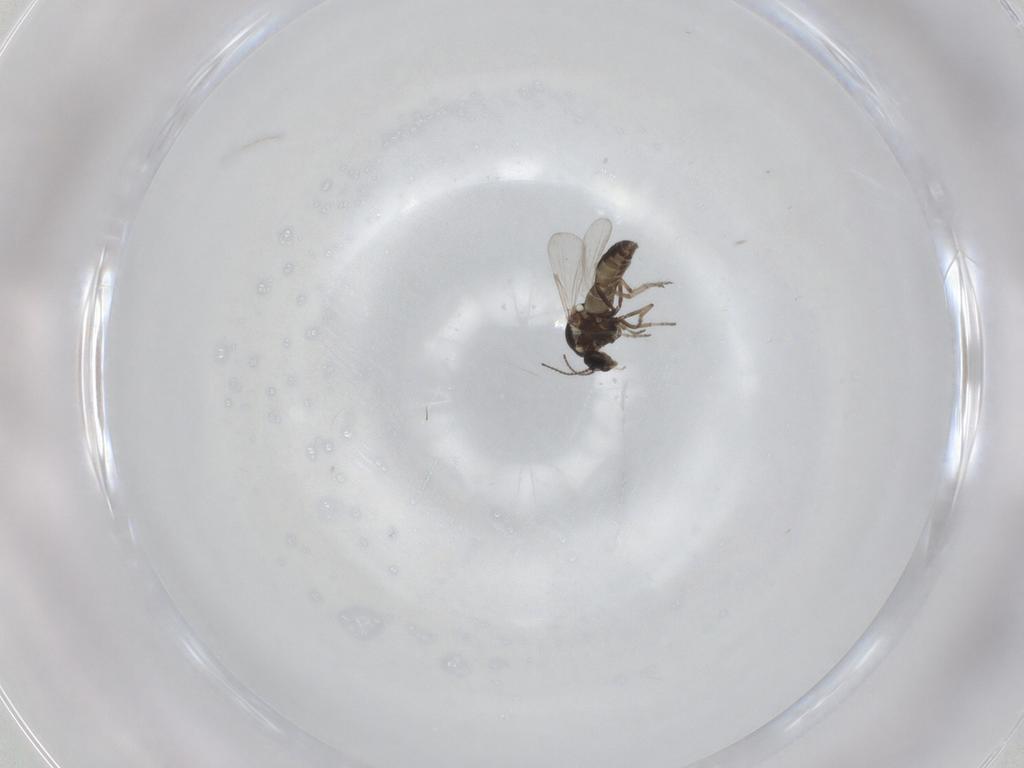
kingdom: Animalia
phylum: Arthropoda
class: Insecta
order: Diptera
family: Ceratopogonidae
